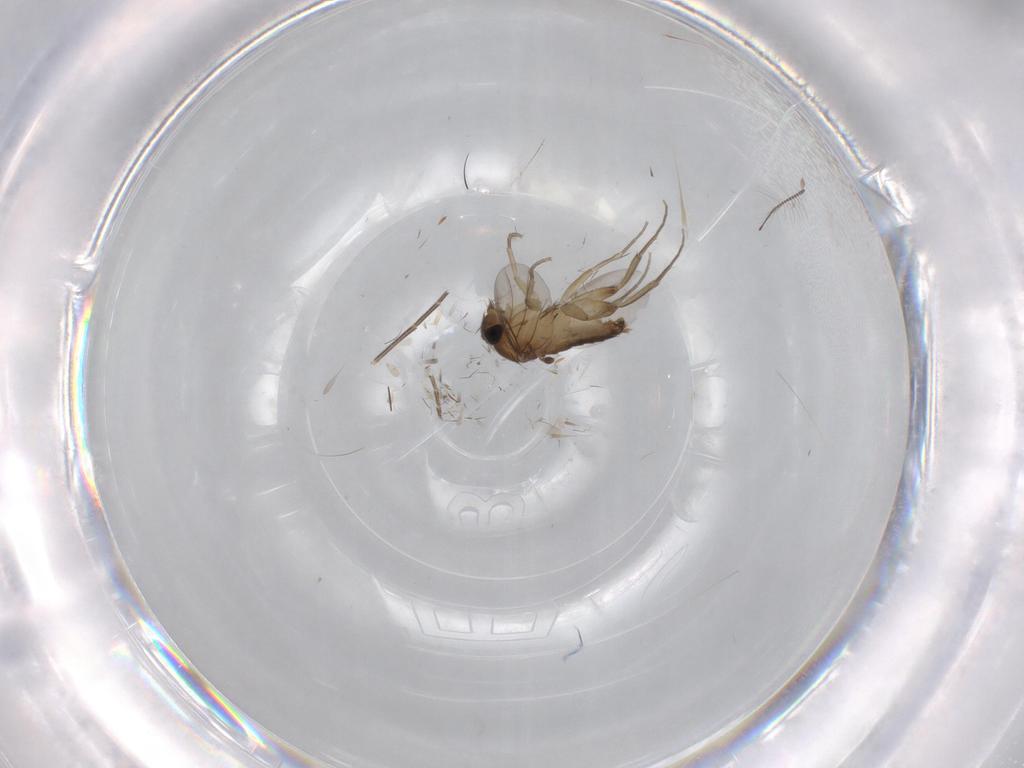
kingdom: Animalia
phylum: Arthropoda
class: Insecta
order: Diptera
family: Phoridae
